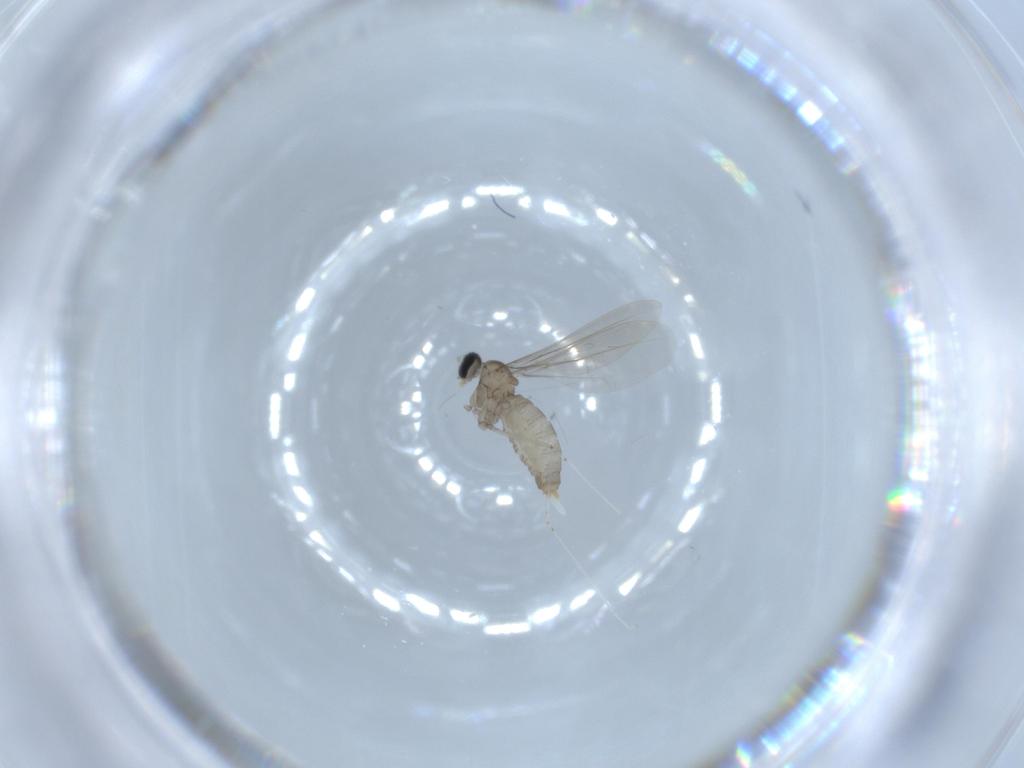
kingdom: Animalia
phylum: Arthropoda
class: Insecta
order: Diptera
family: Cecidomyiidae
